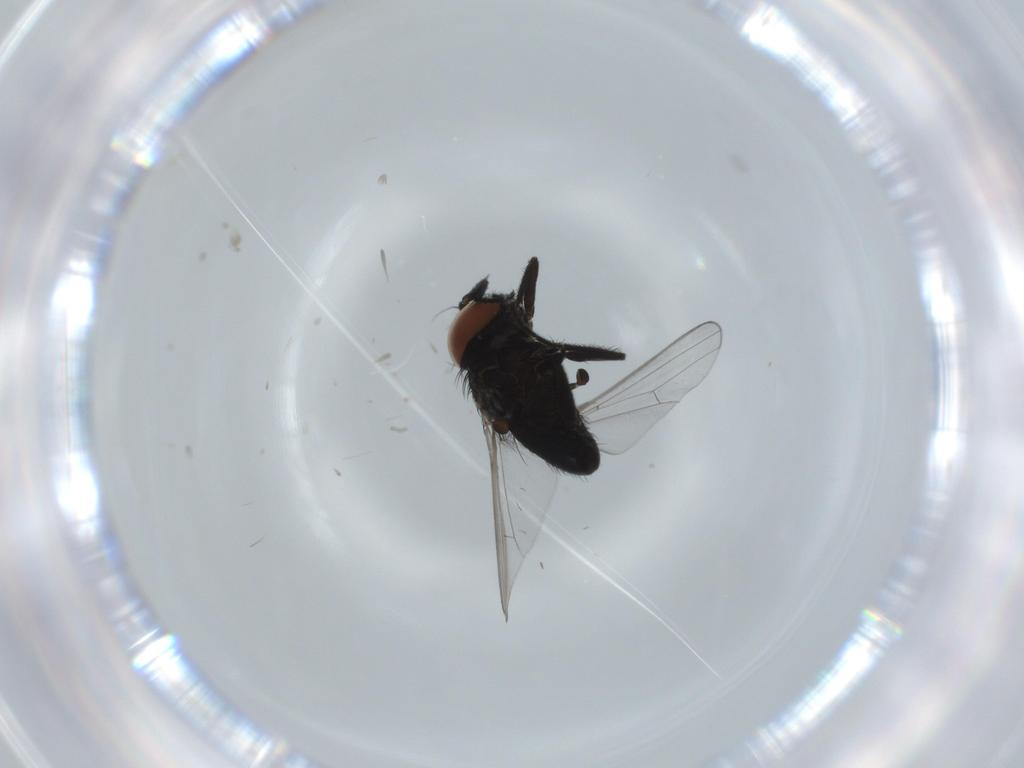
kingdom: Animalia
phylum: Arthropoda
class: Insecta
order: Diptera
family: Milichiidae
